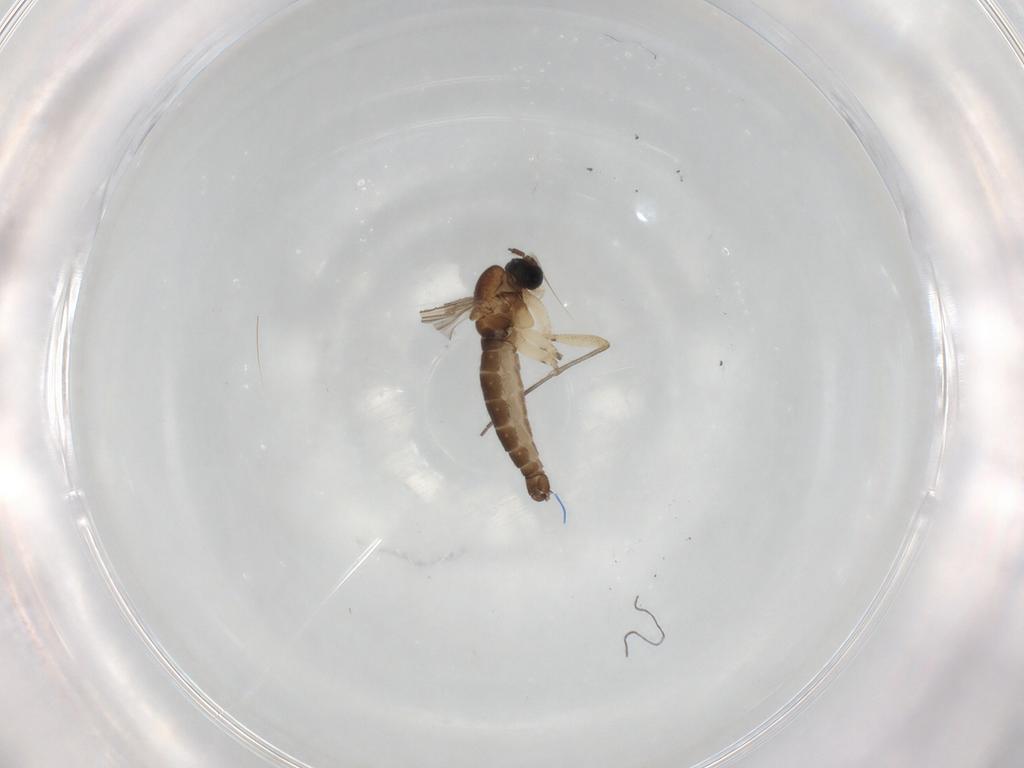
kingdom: Animalia
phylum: Arthropoda
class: Insecta
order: Diptera
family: Sciaridae
